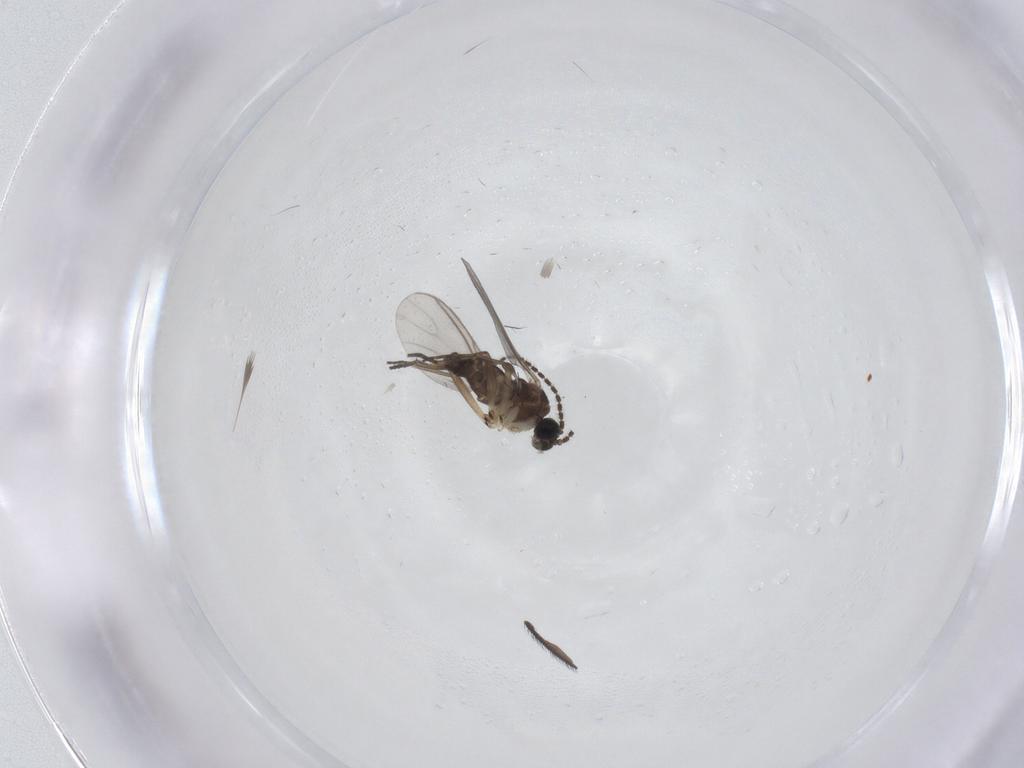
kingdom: Animalia
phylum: Arthropoda
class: Insecta
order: Diptera
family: Sciaridae
